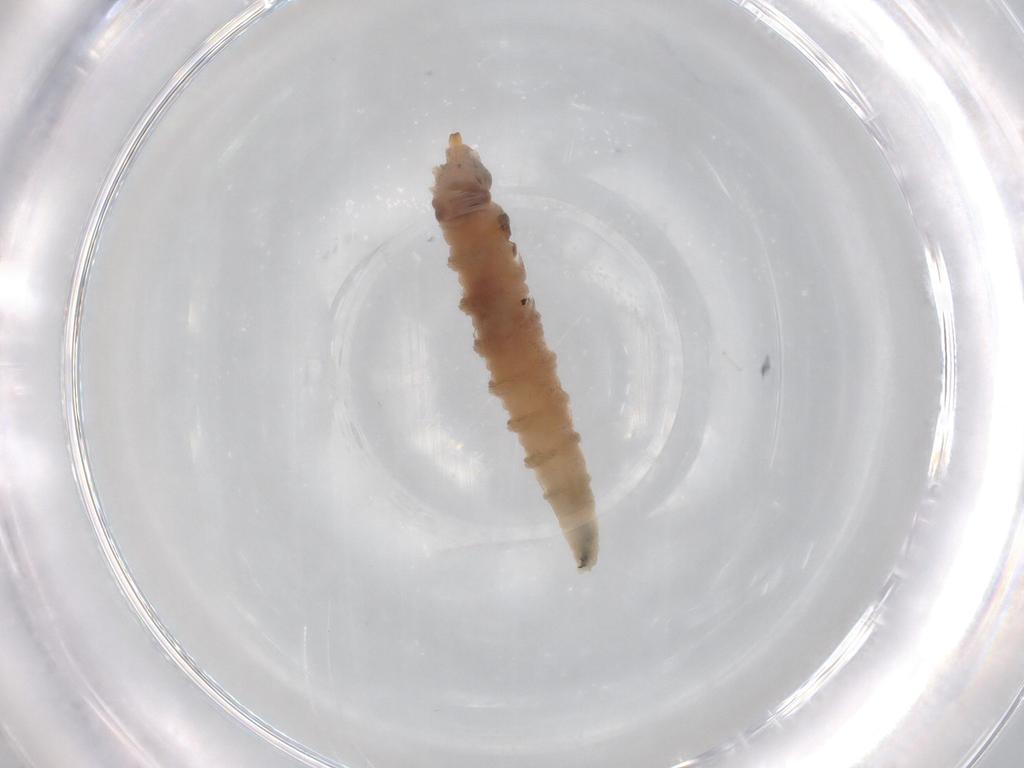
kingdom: Animalia
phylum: Arthropoda
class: Insecta
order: Diptera
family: Drosophilidae
